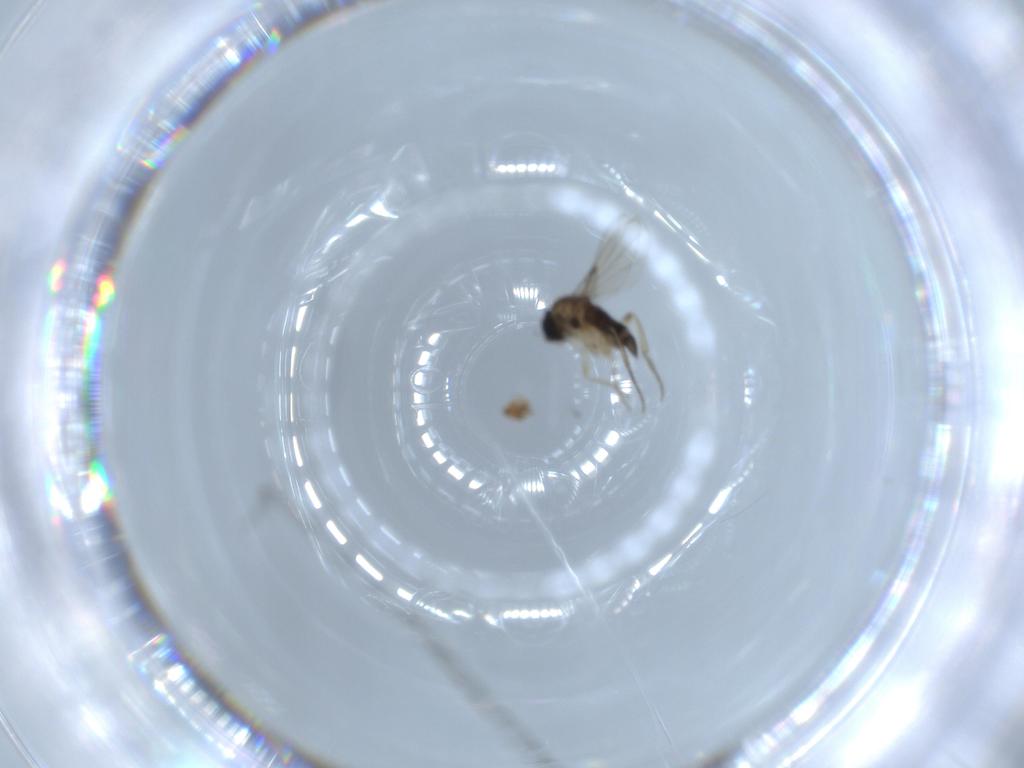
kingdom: Animalia
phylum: Arthropoda
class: Insecta
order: Diptera
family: Phoridae
